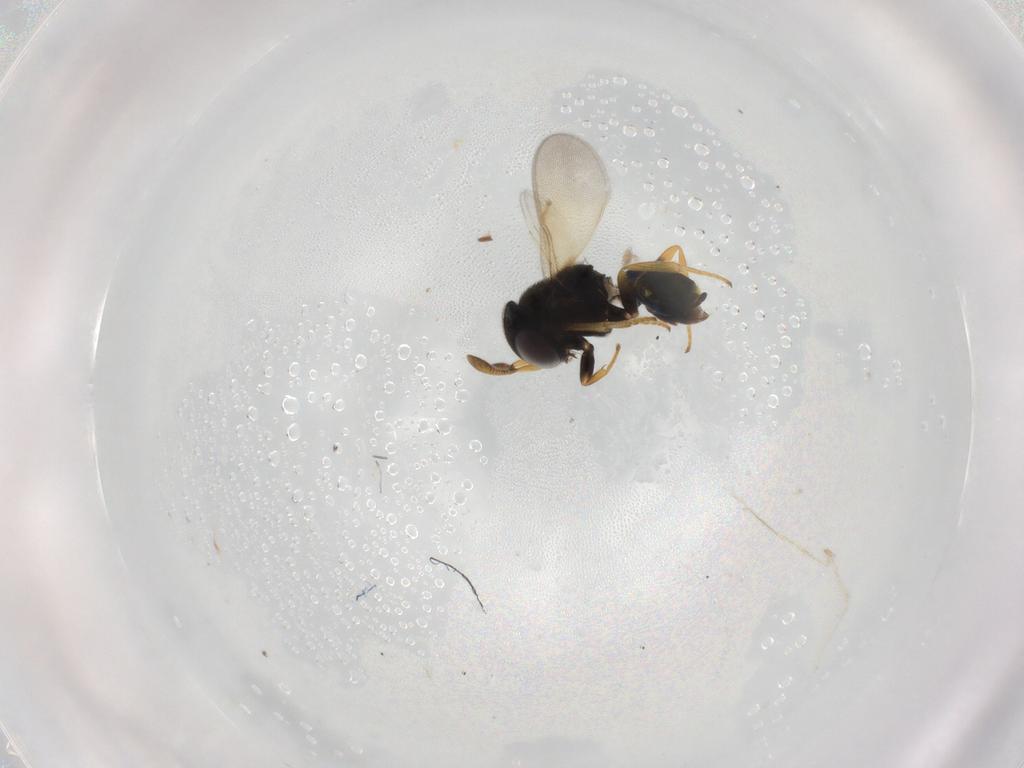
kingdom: Animalia
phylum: Arthropoda
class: Insecta
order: Hymenoptera
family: Encyrtidae
